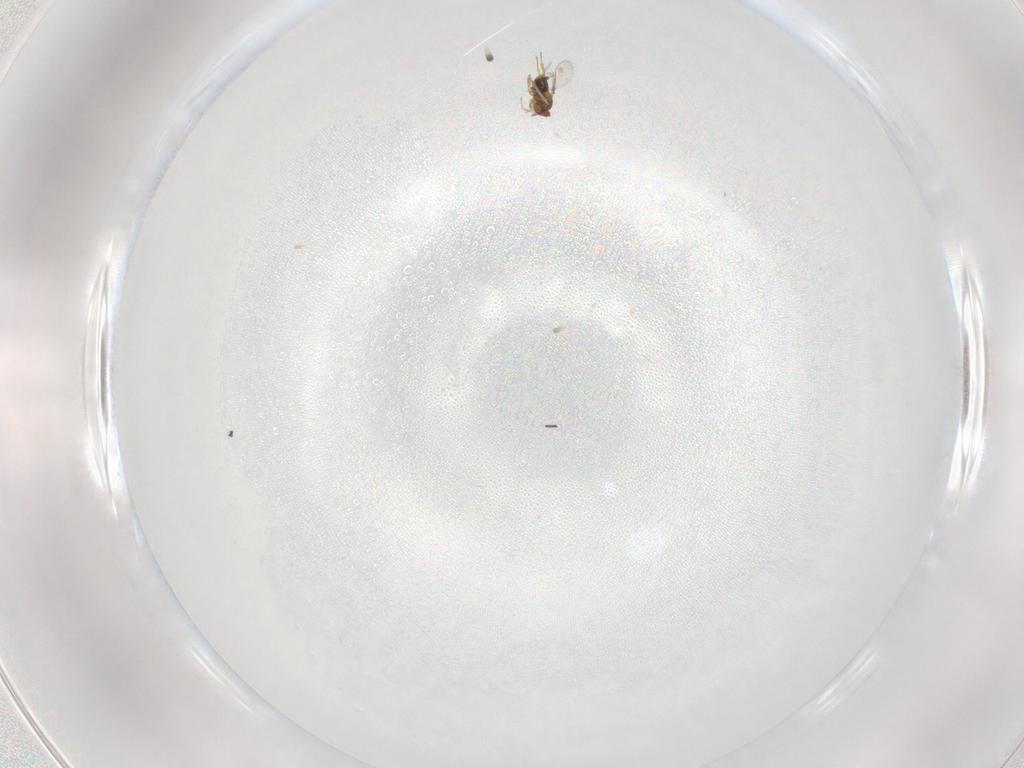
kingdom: Animalia
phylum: Arthropoda
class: Insecta
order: Hymenoptera
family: Trichogrammatidae
